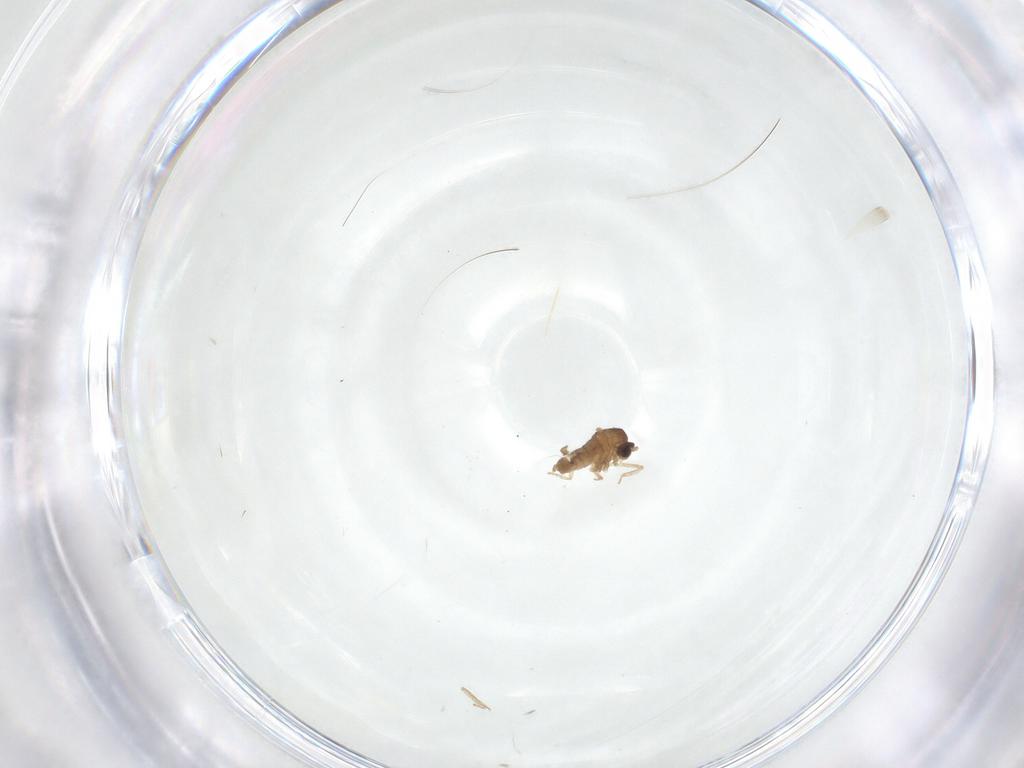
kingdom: Animalia
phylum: Arthropoda
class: Insecta
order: Diptera
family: Cecidomyiidae
